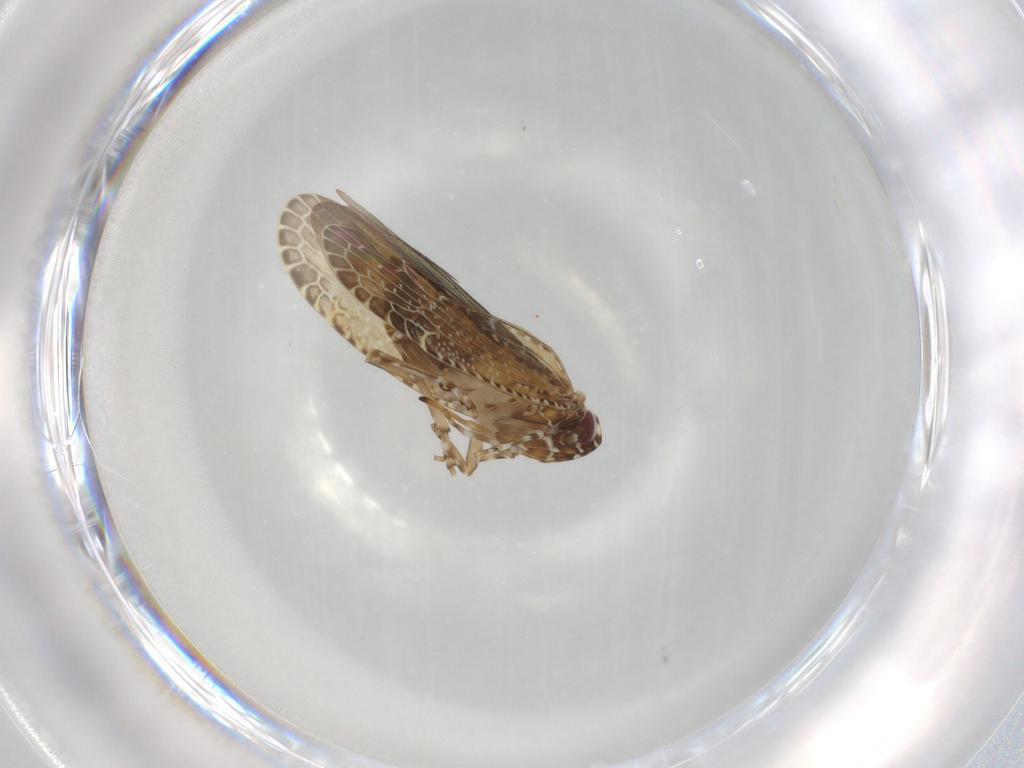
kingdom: Animalia
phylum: Arthropoda
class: Insecta
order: Hemiptera
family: Achilidae
